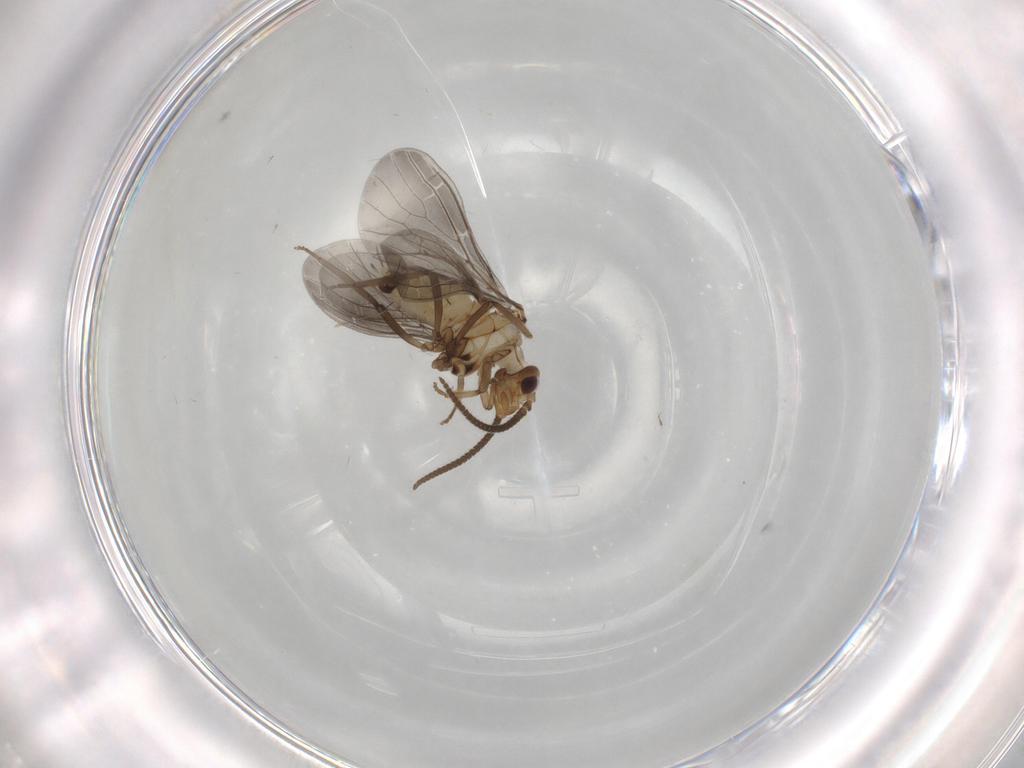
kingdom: Animalia
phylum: Arthropoda
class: Insecta
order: Neuroptera
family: Coniopterygidae
